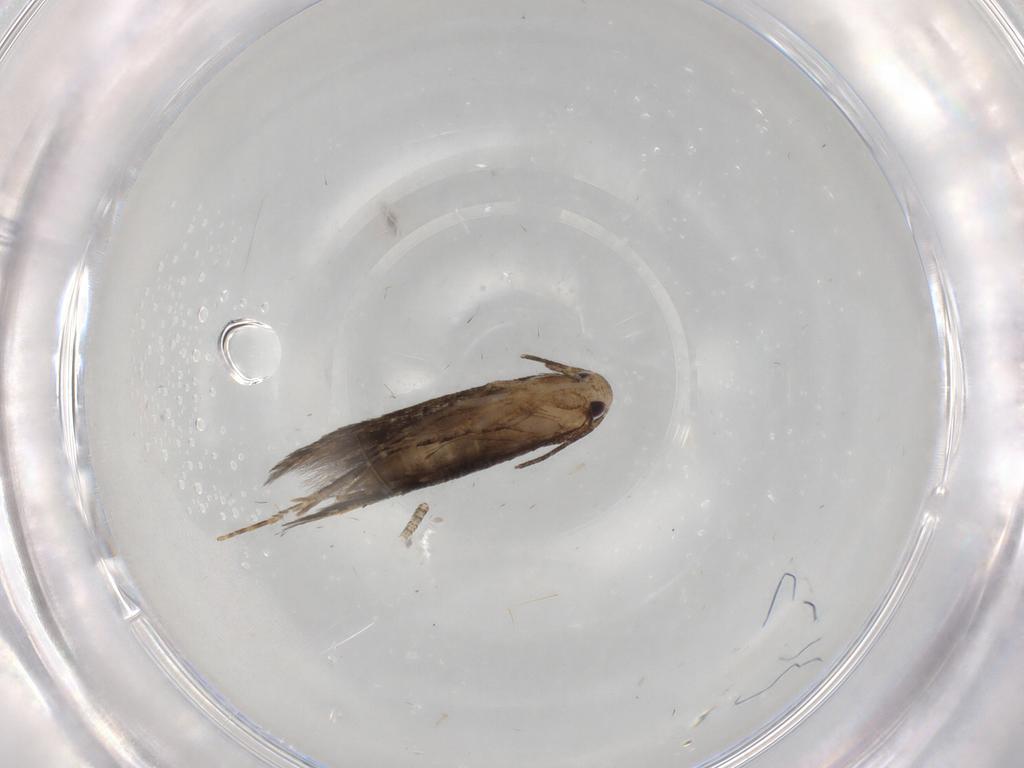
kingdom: Animalia
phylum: Arthropoda
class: Insecta
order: Lepidoptera
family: Cosmopterigidae
